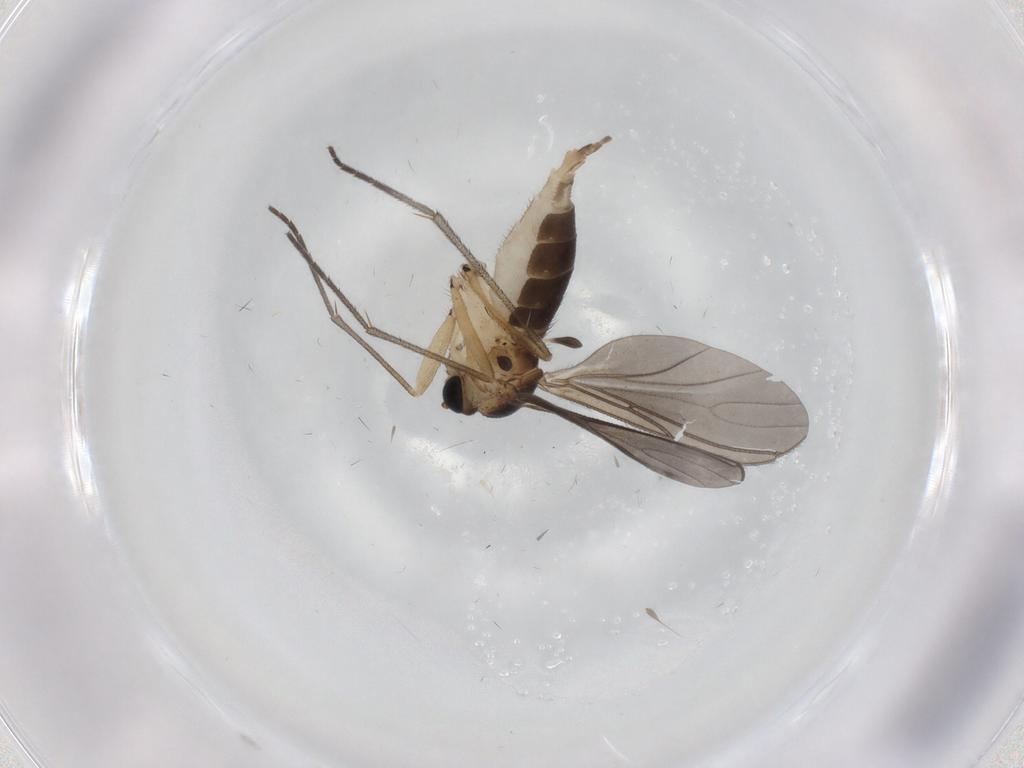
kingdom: Animalia
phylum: Arthropoda
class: Insecta
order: Diptera
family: Sciaridae
